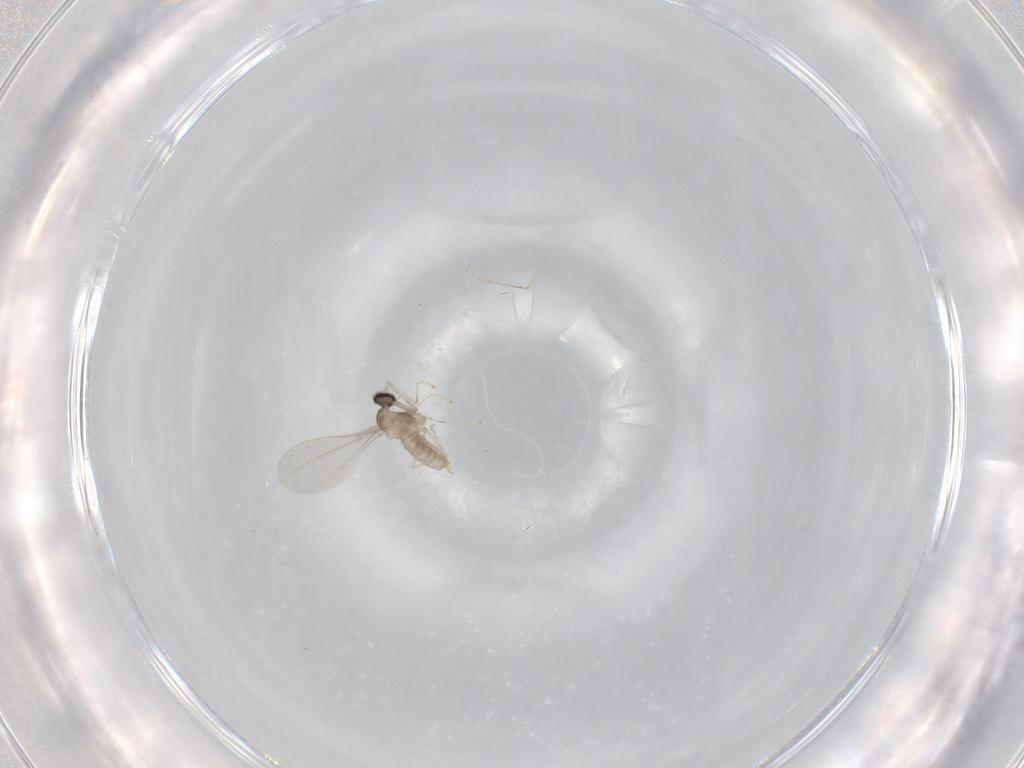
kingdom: Animalia
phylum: Arthropoda
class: Insecta
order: Diptera
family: Cecidomyiidae
